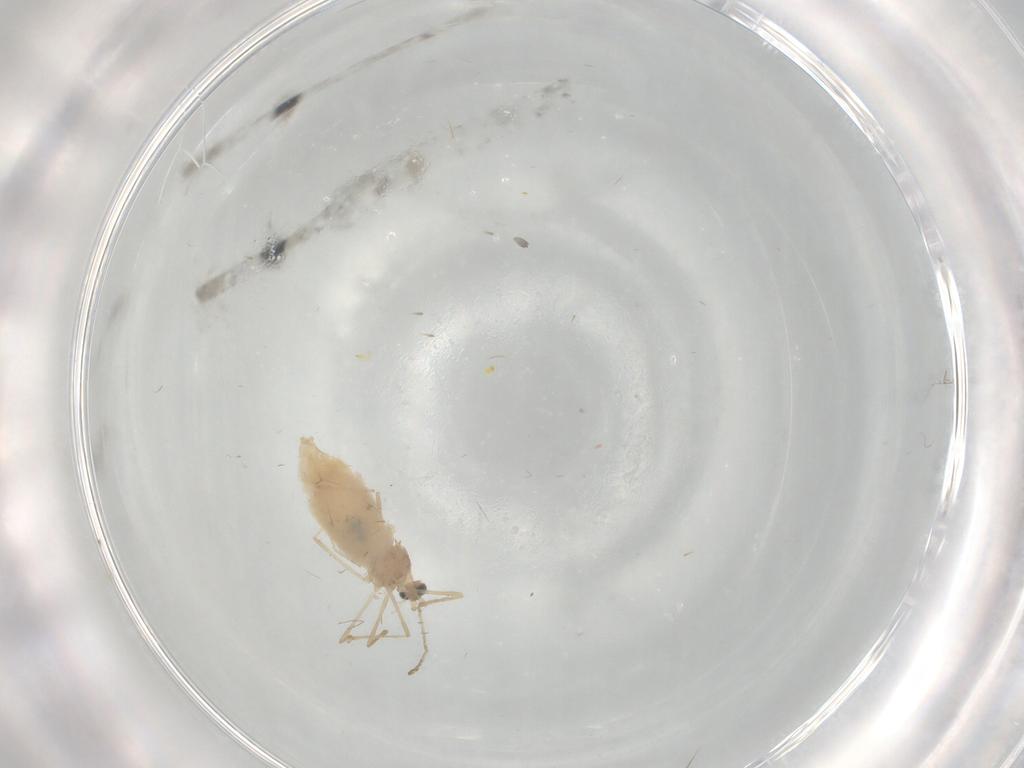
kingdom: Animalia
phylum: Arthropoda
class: Insecta
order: Diptera
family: Cecidomyiidae
